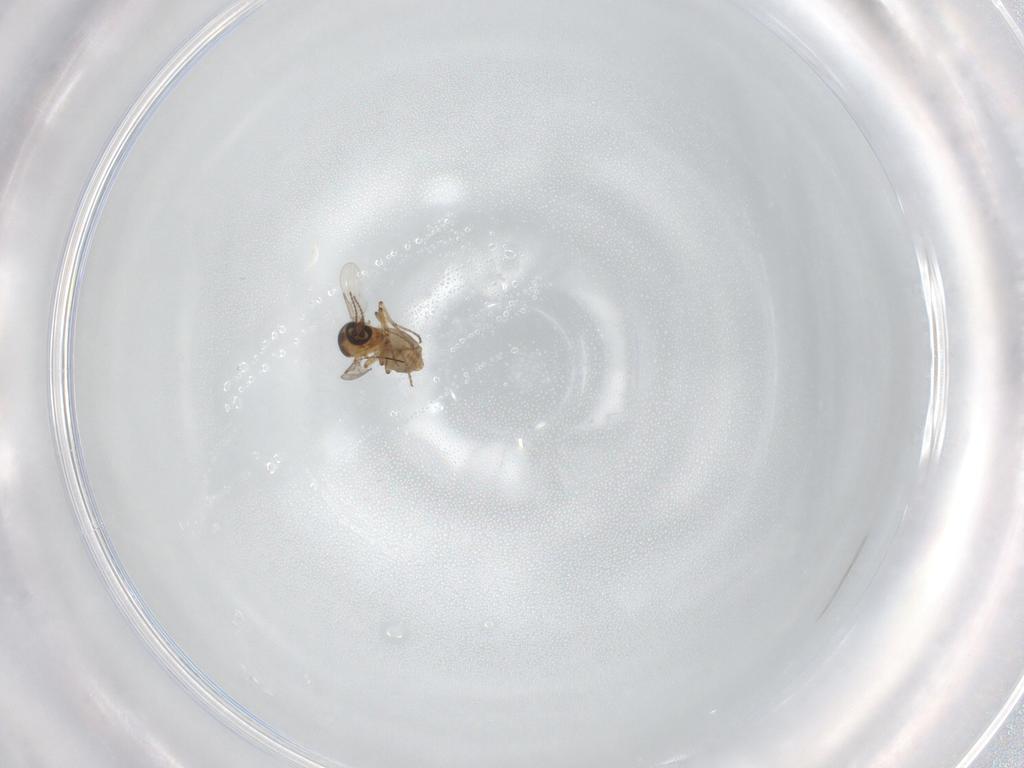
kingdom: Animalia
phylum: Arthropoda
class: Insecta
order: Diptera
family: Ceratopogonidae
